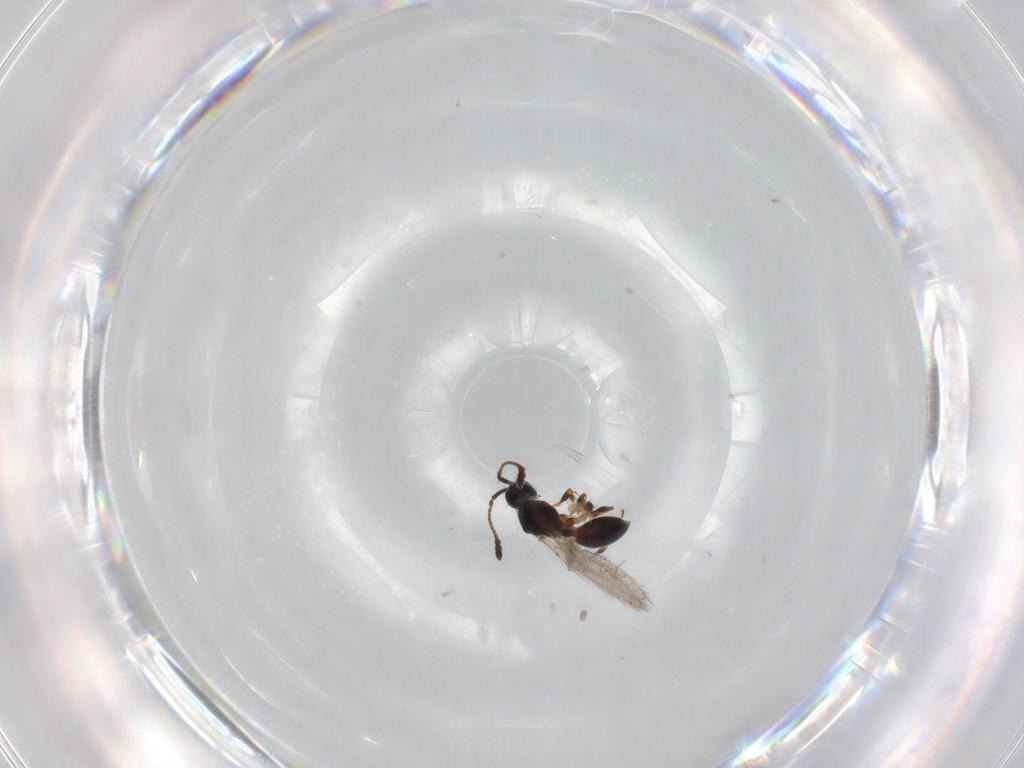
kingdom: Animalia
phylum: Arthropoda
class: Insecta
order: Hymenoptera
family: Diapriidae
